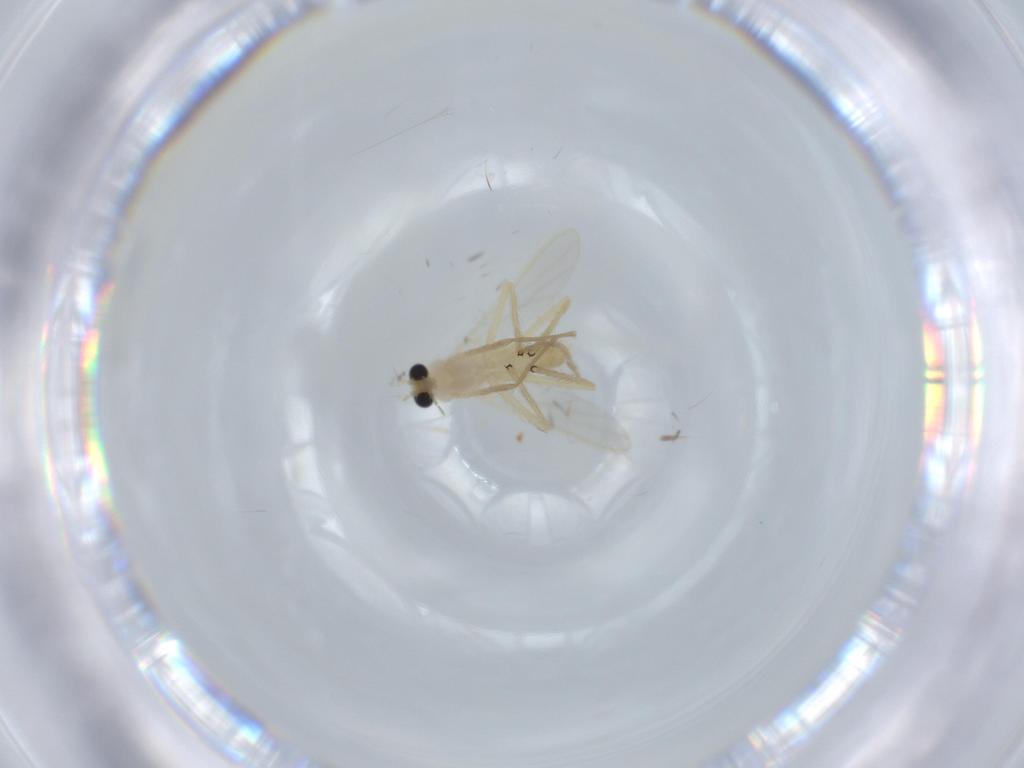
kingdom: Animalia
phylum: Arthropoda
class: Insecta
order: Diptera
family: Chironomidae
